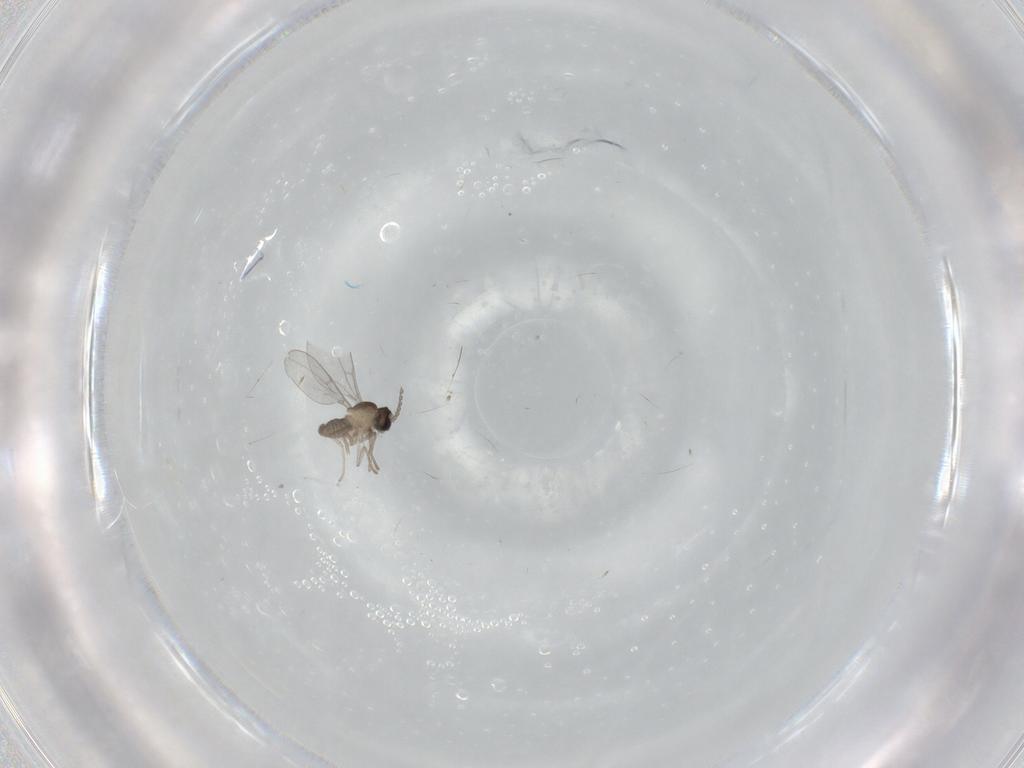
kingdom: Animalia
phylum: Arthropoda
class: Insecta
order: Diptera
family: Cecidomyiidae
